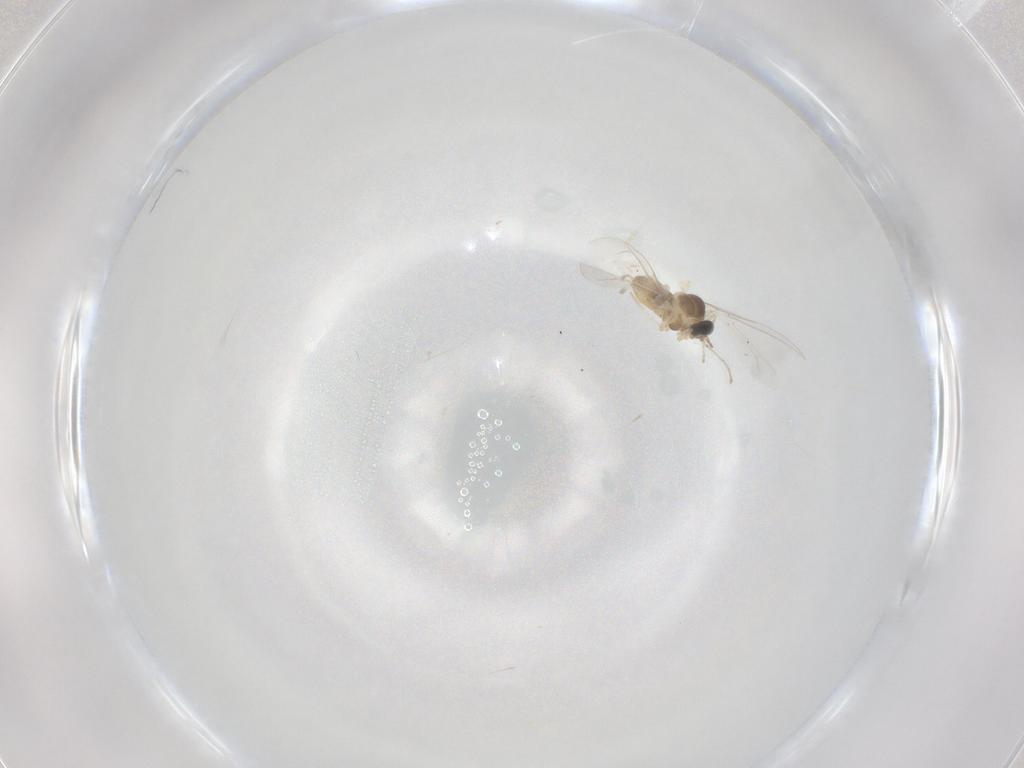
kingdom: Animalia
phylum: Arthropoda
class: Insecta
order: Diptera
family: Cecidomyiidae
